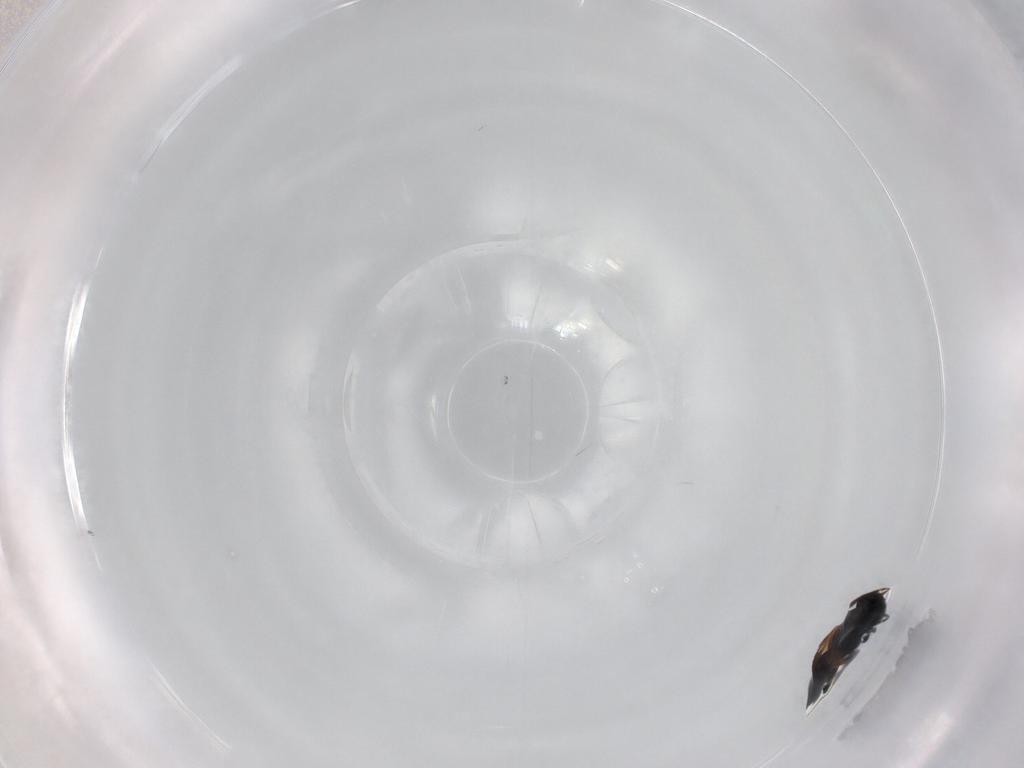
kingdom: Animalia
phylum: Arthropoda
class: Insecta
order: Hymenoptera
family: Scelionidae
